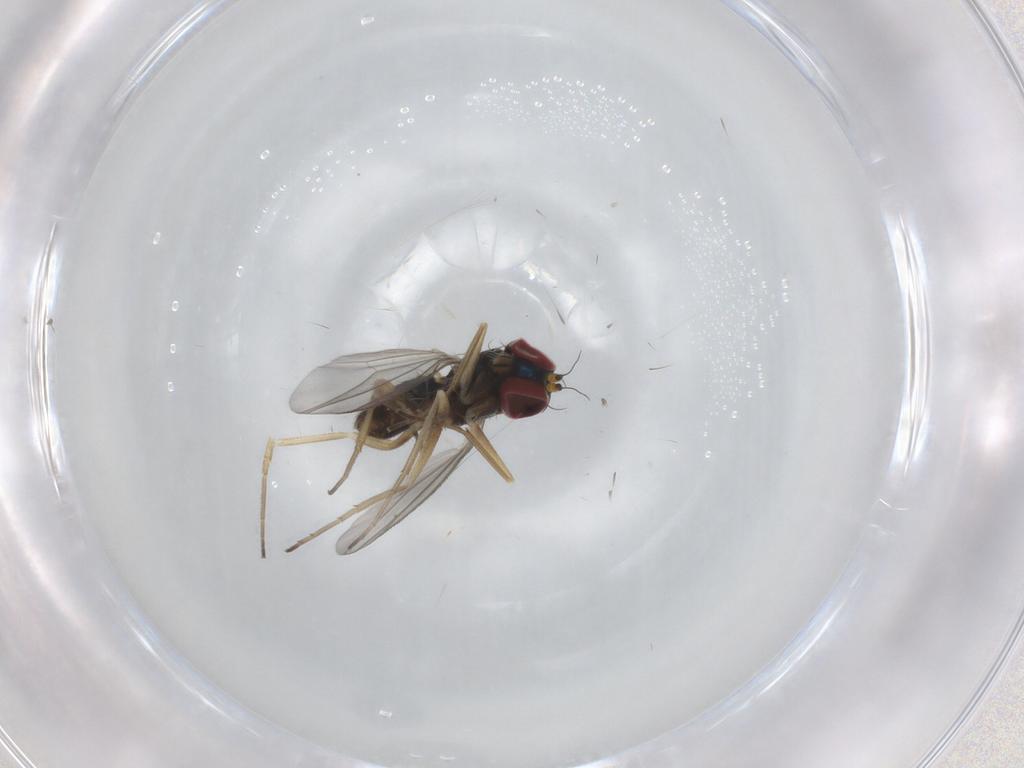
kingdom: Animalia
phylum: Arthropoda
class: Insecta
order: Diptera
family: Dolichopodidae
